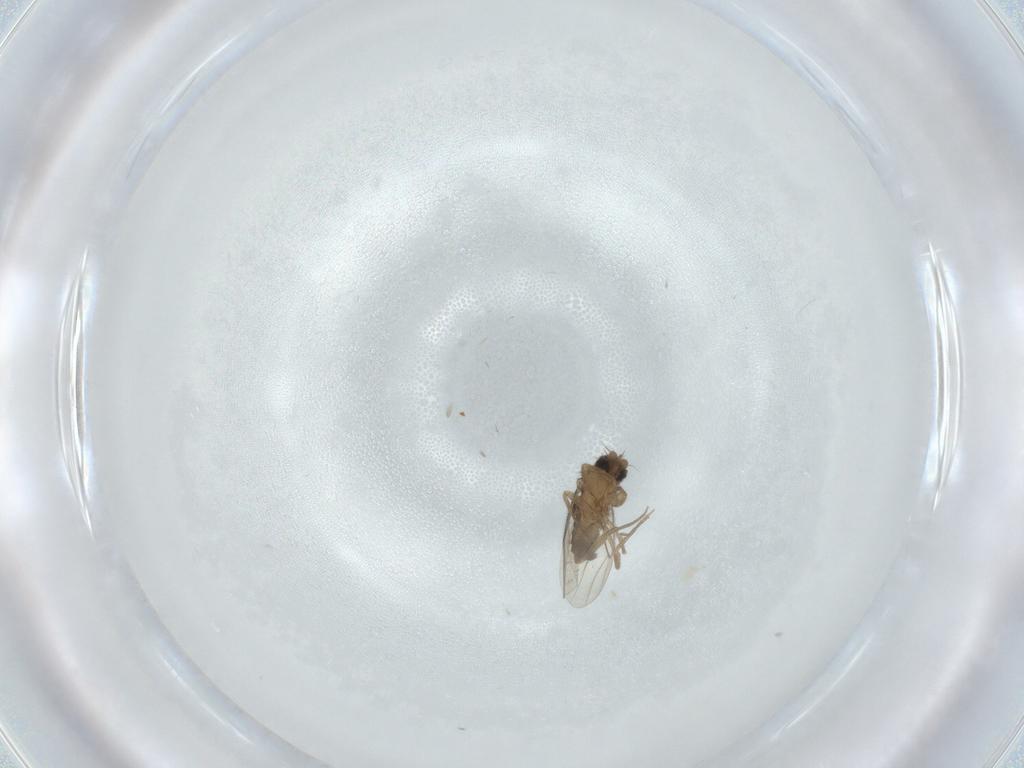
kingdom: Animalia
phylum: Arthropoda
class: Insecta
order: Diptera
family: Phoridae
